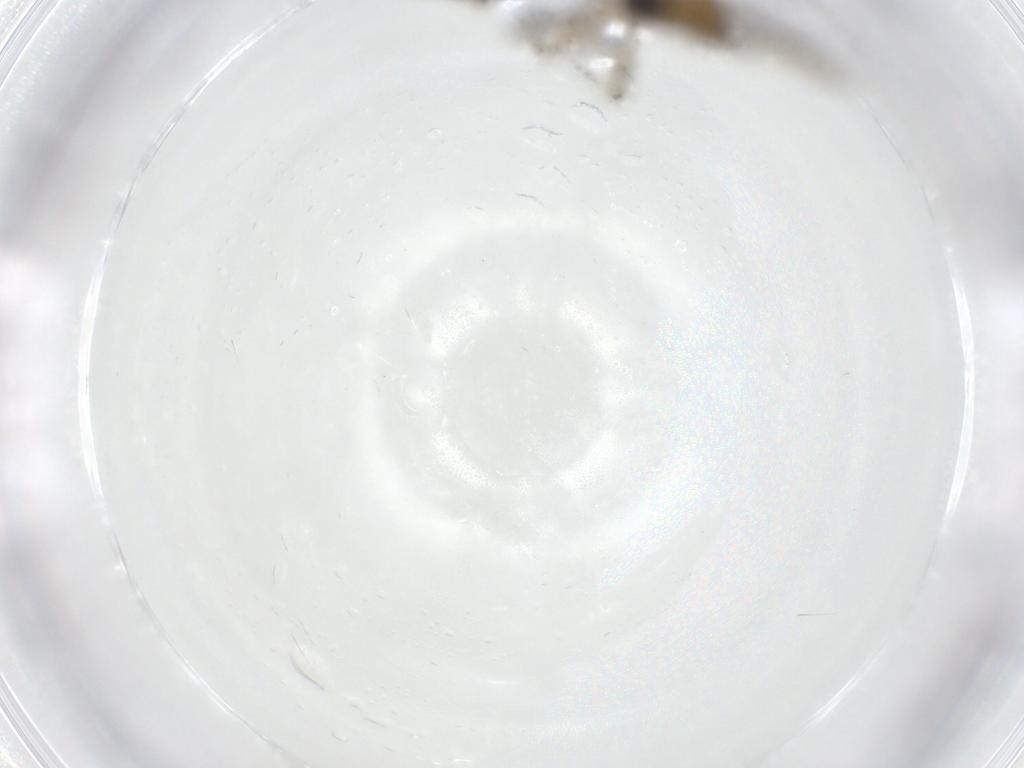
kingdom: Animalia
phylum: Arthropoda
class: Insecta
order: Diptera
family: Sciaridae
